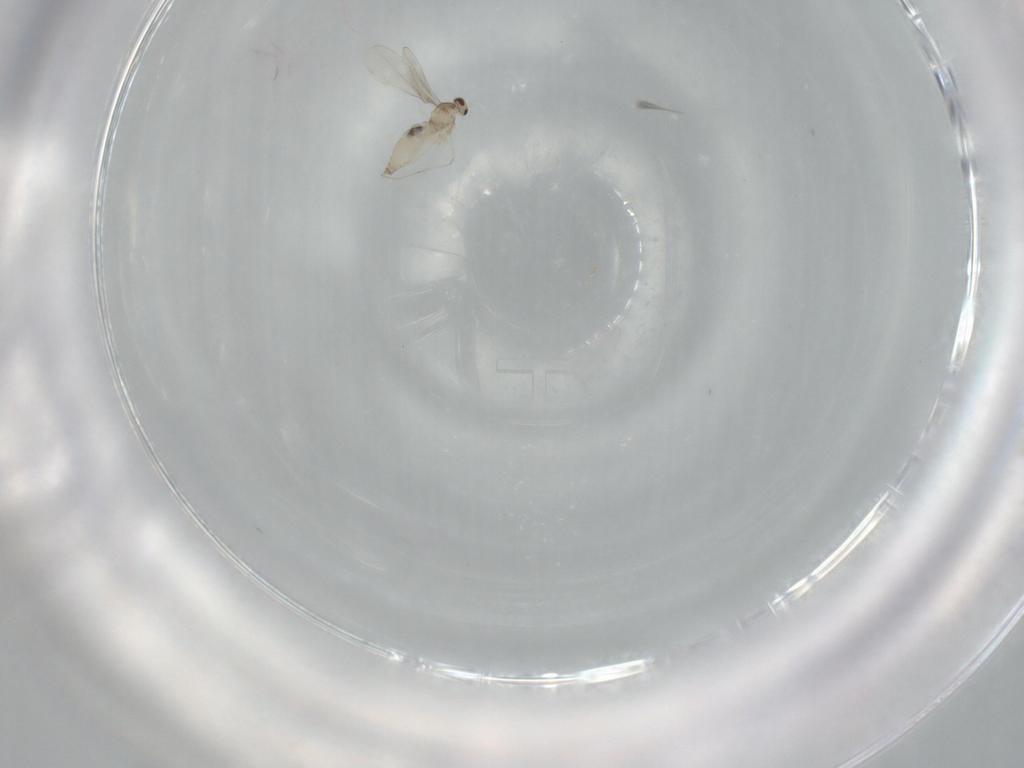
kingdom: Animalia
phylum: Arthropoda
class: Insecta
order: Diptera
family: Cecidomyiidae
